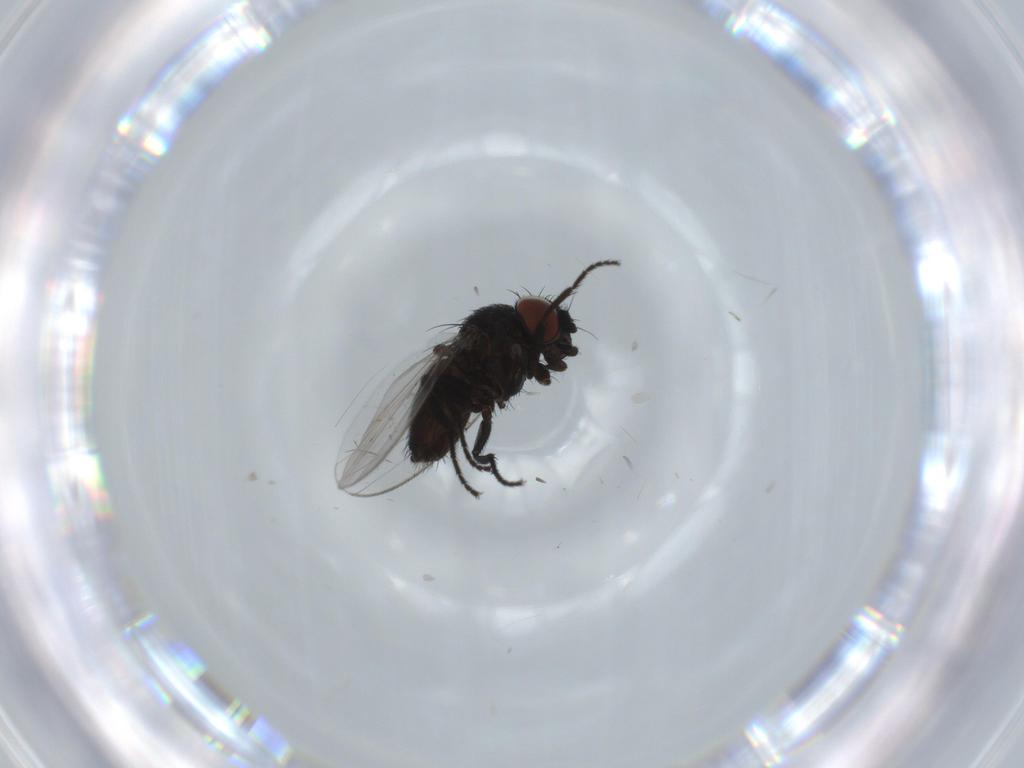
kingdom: Animalia
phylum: Arthropoda
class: Insecta
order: Diptera
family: Milichiidae
